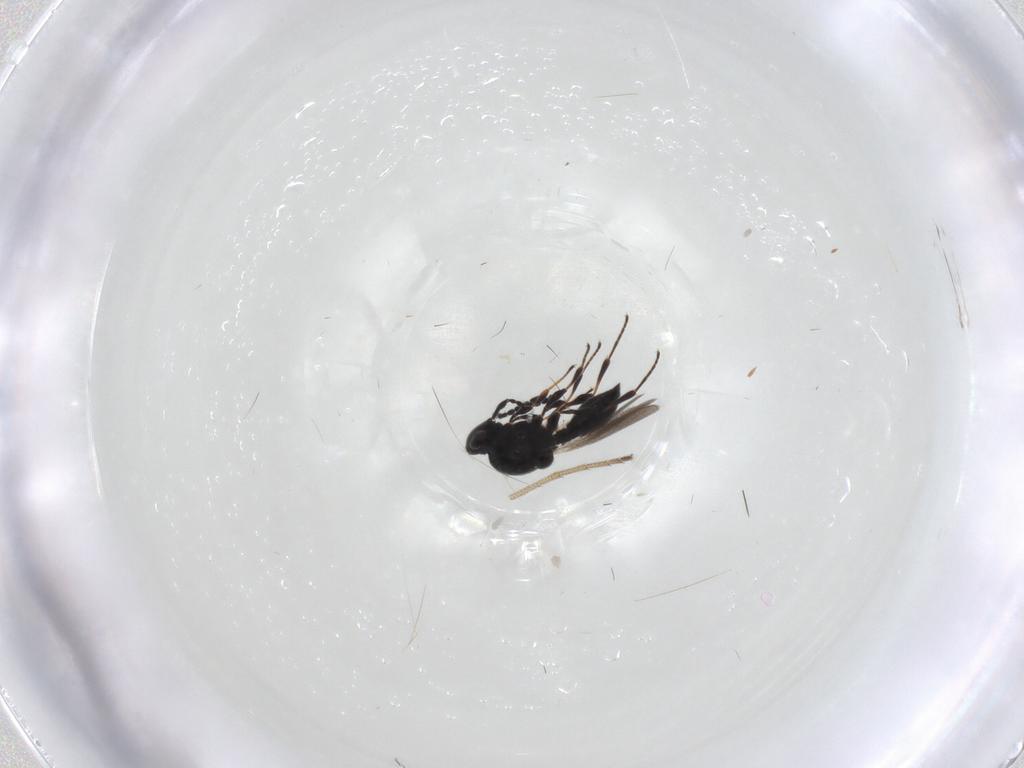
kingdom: Animalia
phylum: Arthropoda
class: Insecta
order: Hymenoptera
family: Platygastridae
